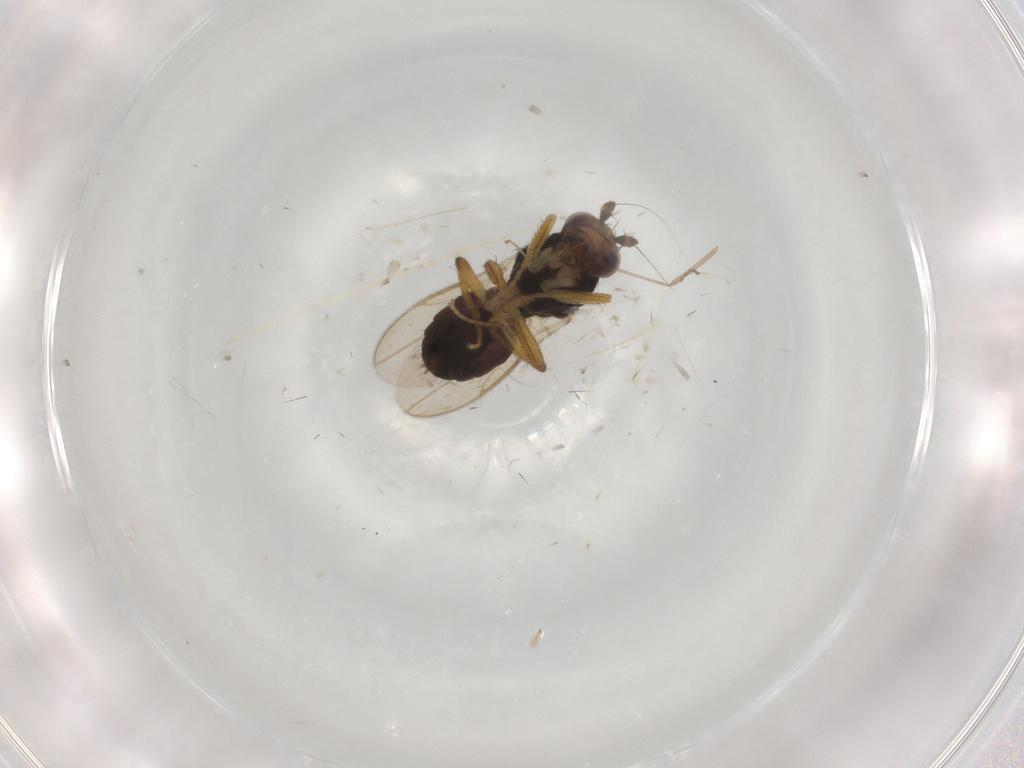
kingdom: Animalia
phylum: Arthropoda
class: Insecta
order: Diptera
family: Sphaeroceridae
